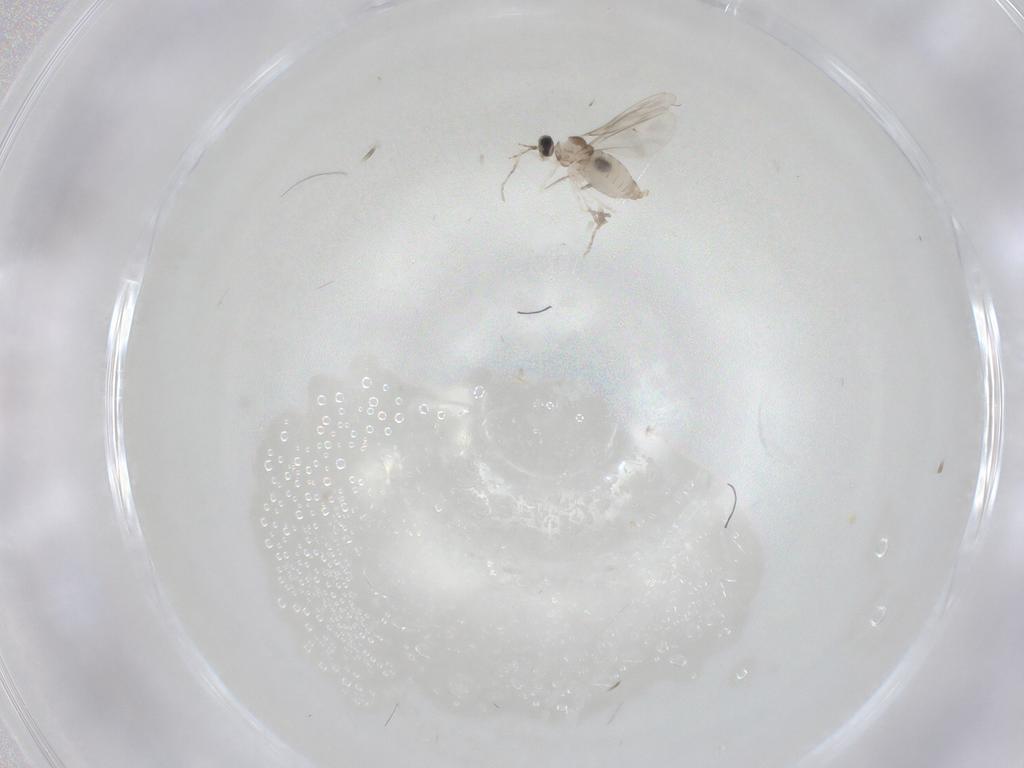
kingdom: Animalia
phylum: Arthropoda
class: Insecta
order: Diptera
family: Cecidomyiidae
